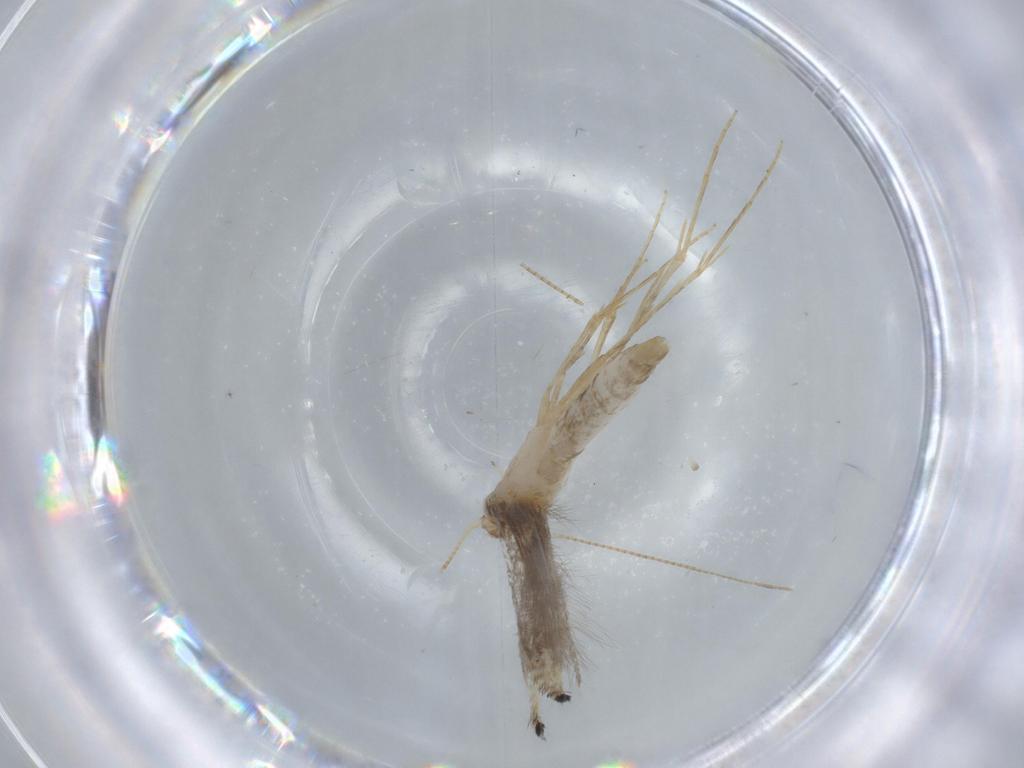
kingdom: Animalia
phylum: Arthropoda
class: Insecta
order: Lepidoptera
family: Gracillariidae
